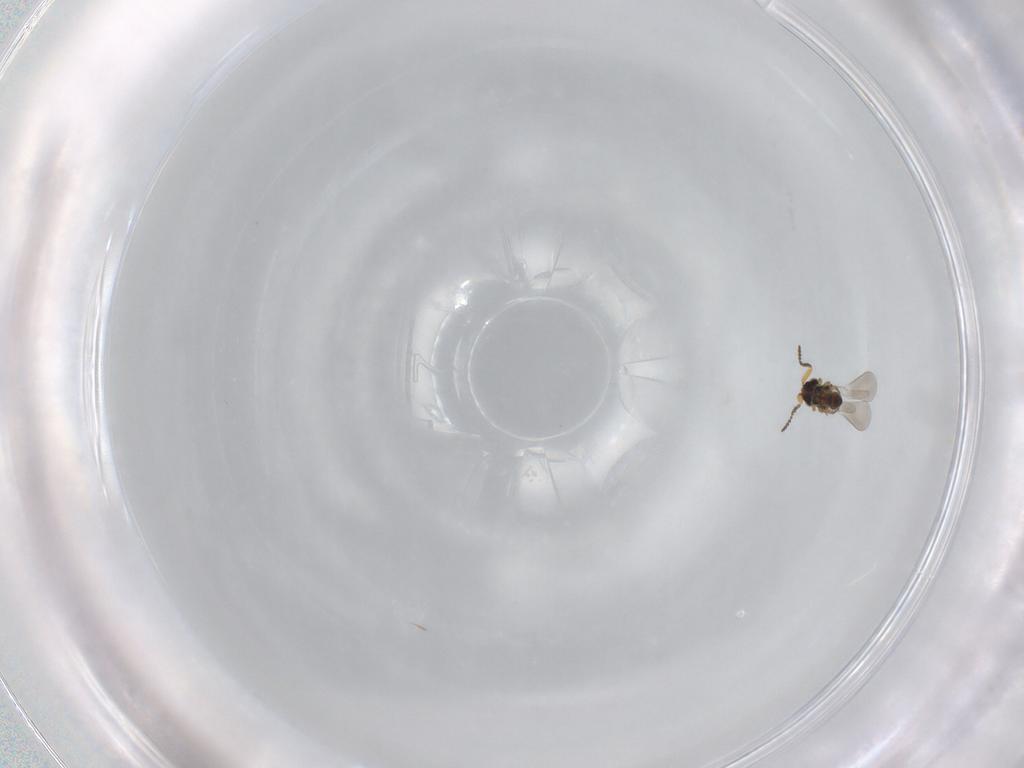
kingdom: Animalia
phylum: Arthropoda
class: Insecta
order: Hymenoptera
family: Platygastridae
